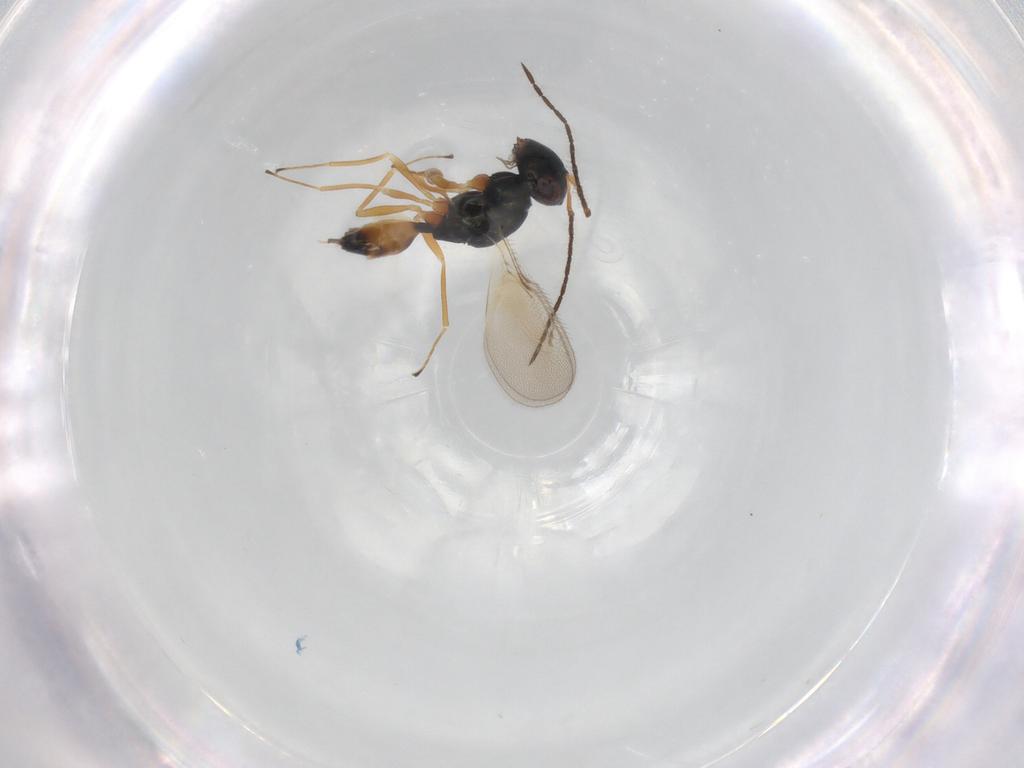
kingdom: Animalia
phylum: Arthropoda
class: Insecta
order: Hymenoptera
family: Pteromalidae
